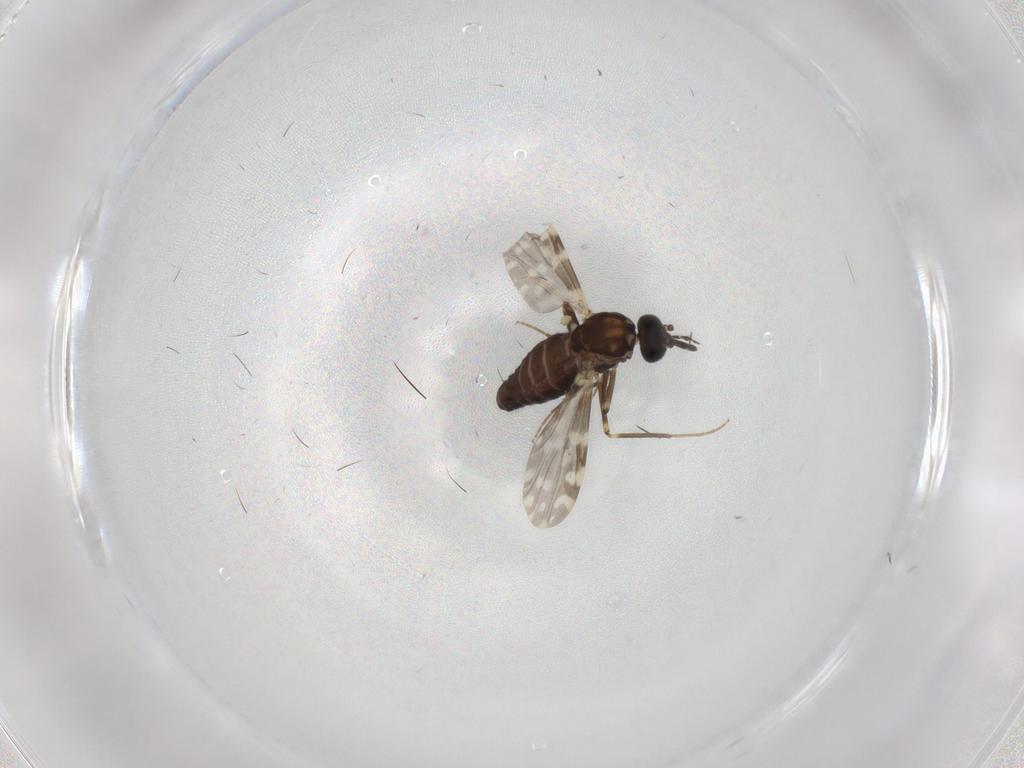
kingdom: Animalia
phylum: Arthropoda
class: Insecta
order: Diptera
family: Ceratopogonidae
